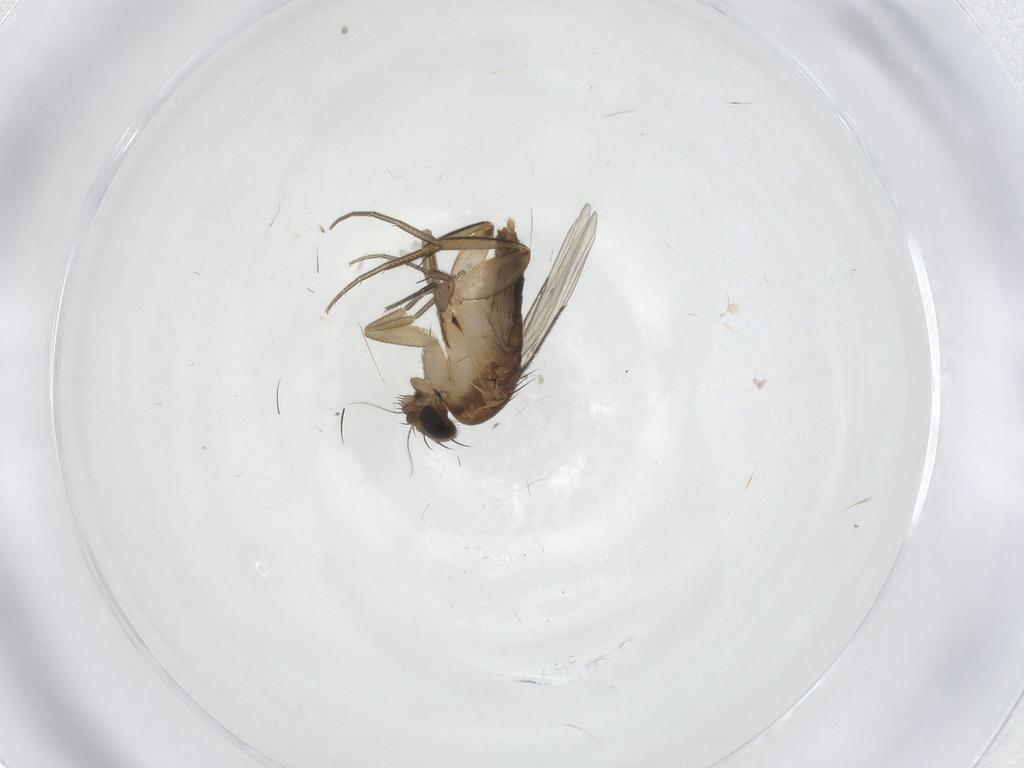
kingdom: Animalia
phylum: Arthropoda
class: Insecta
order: Diptera
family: Phoridae
